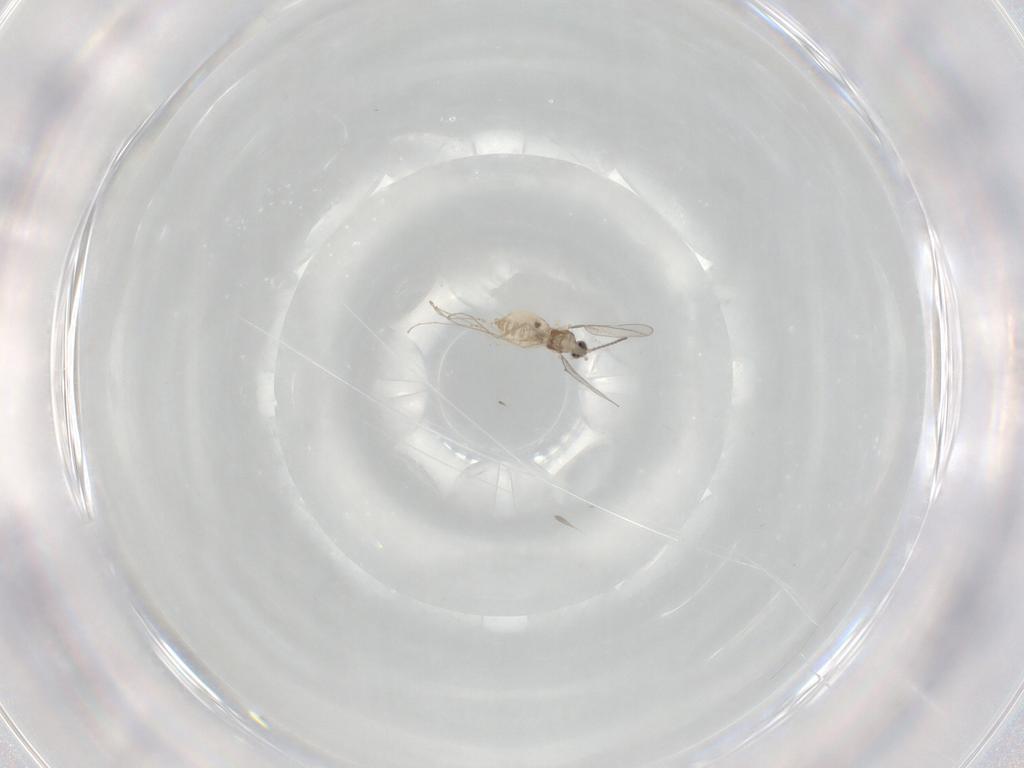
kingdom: Animalia
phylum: Arthropoda
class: Insecta
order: Diptera
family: Cecidomyiidae
